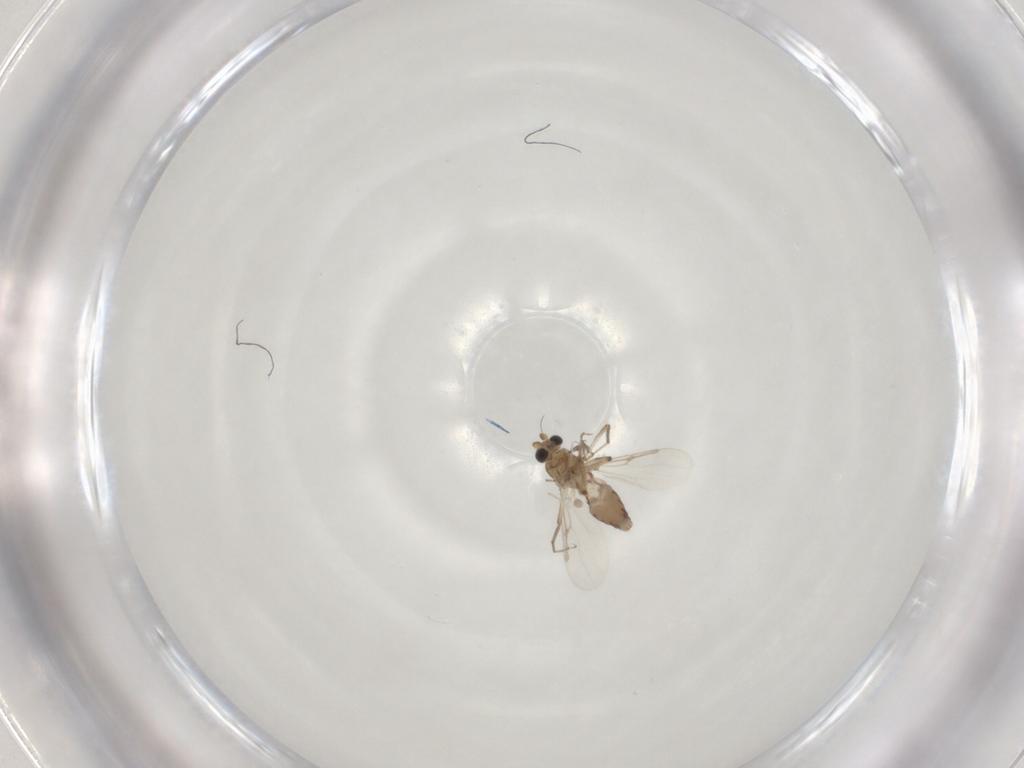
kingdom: Animalia
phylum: Arthropoda
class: Insecta
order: Diptera
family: Ceratopogonidae
